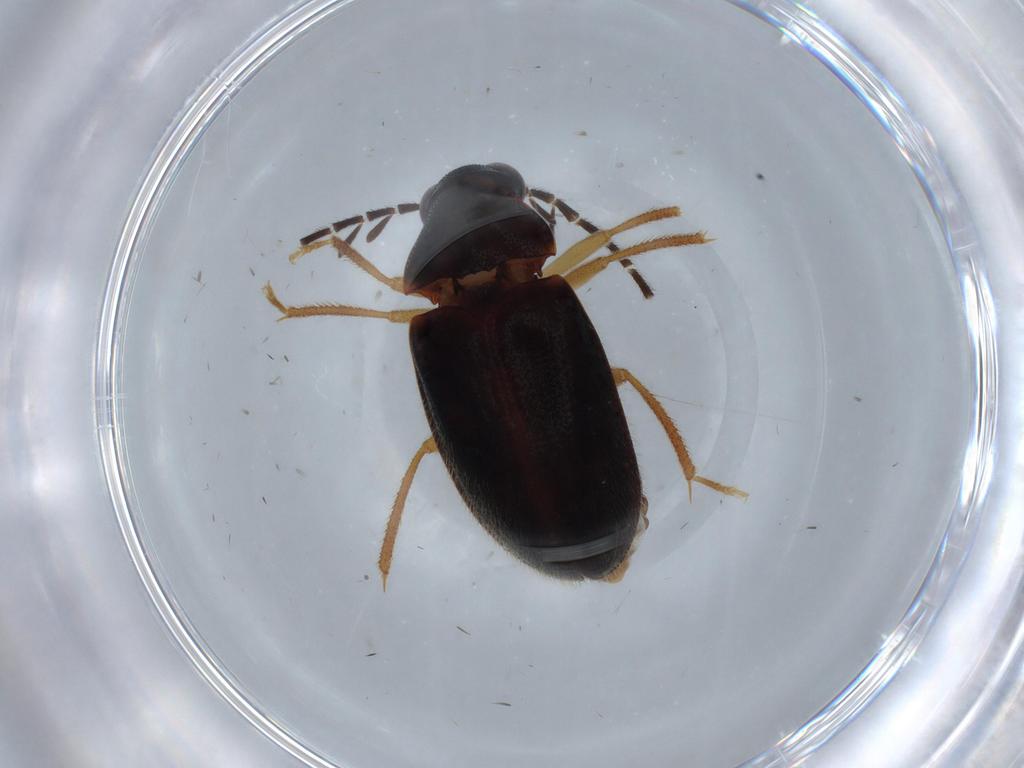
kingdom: Animalia
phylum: Arthropoda
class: Insecta
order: Coleoptera
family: Ptilodactylidae
